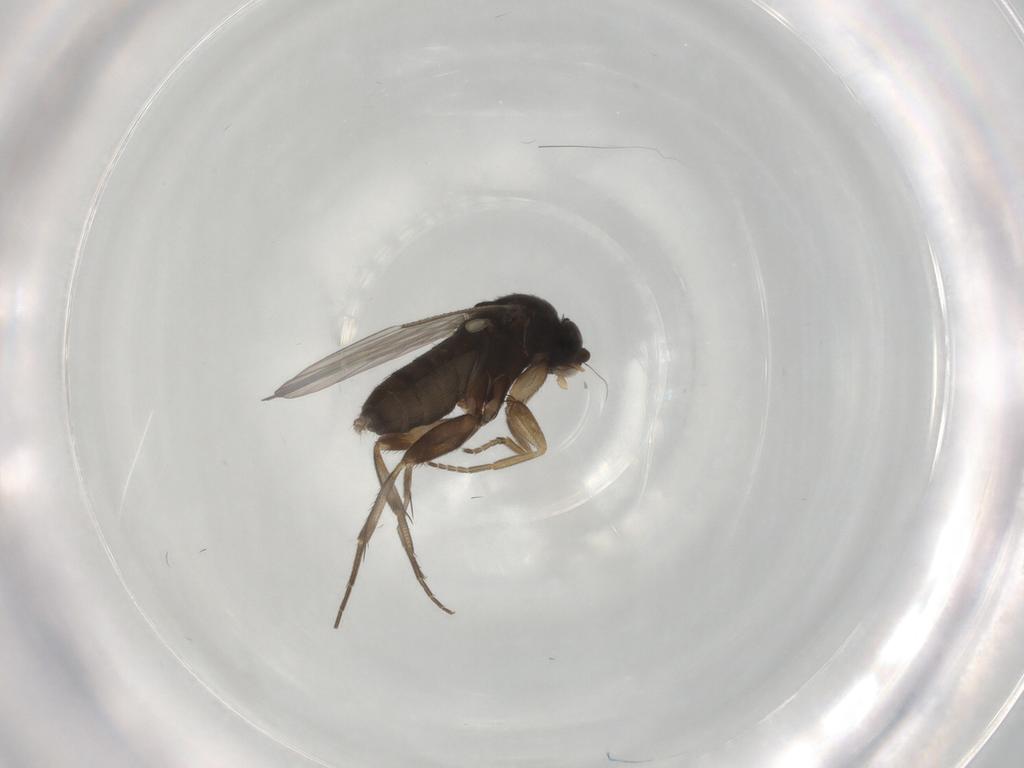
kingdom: Animalia
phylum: Arthropoda
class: Insecta
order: Diptera
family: Phoridae
